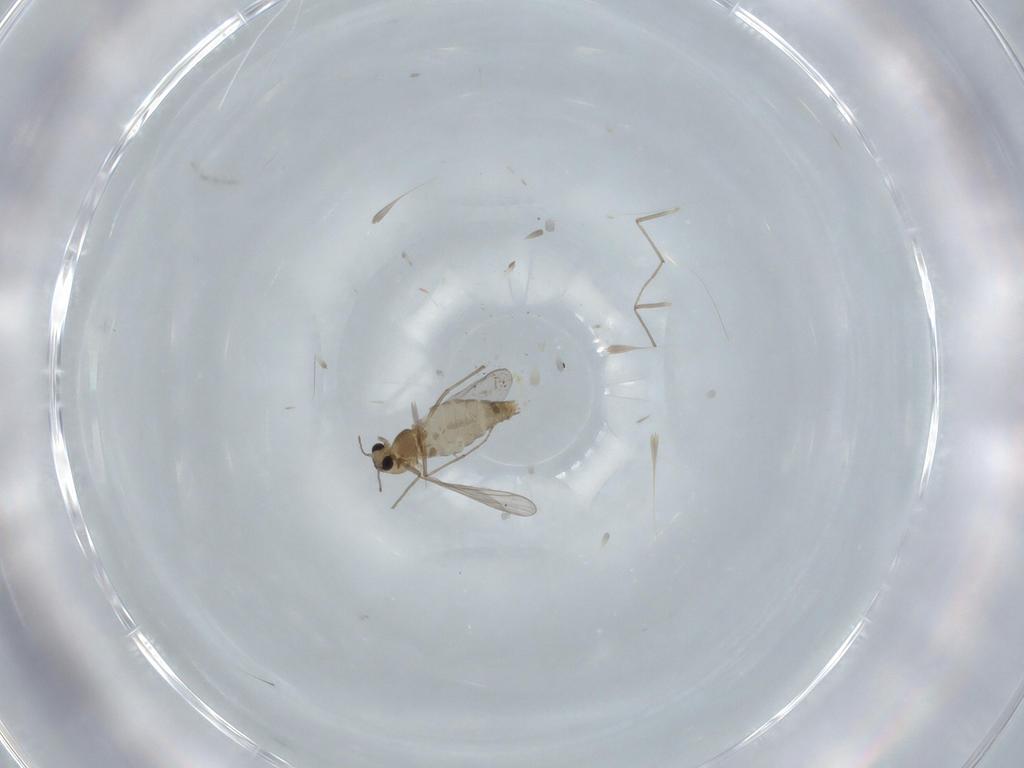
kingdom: Animalia
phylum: Arthropoda
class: Insecta
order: Diptera
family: Chironomidae
